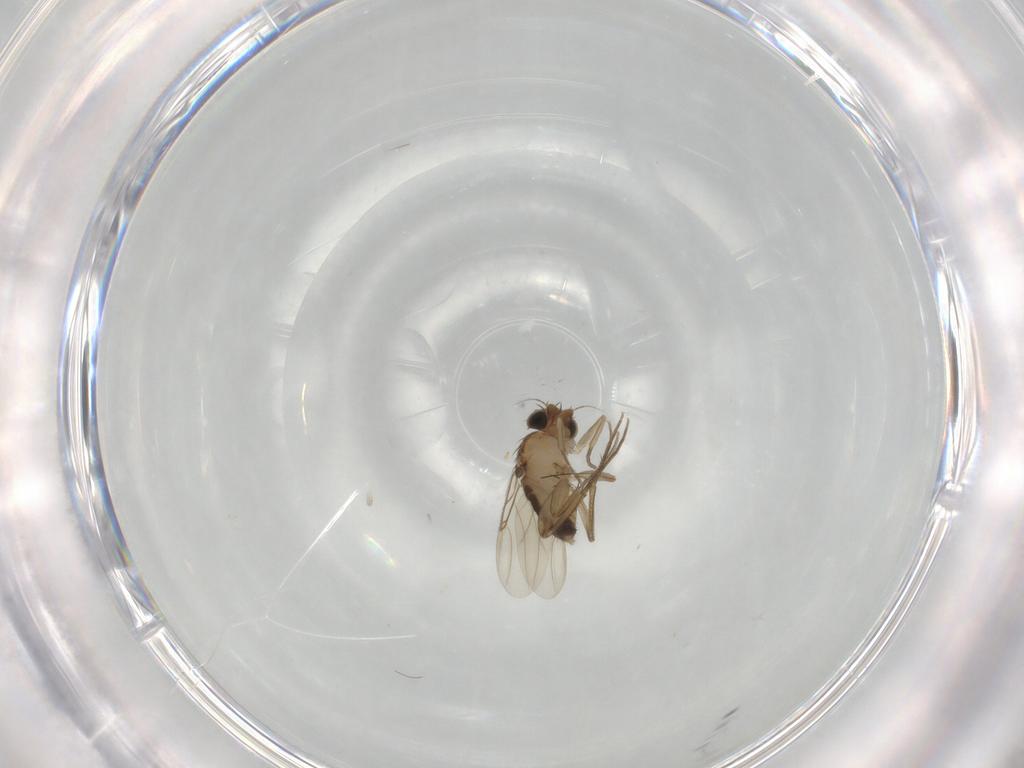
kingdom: Animalia
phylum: Arthropoda
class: Insecta
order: Diptera
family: Phoridae
